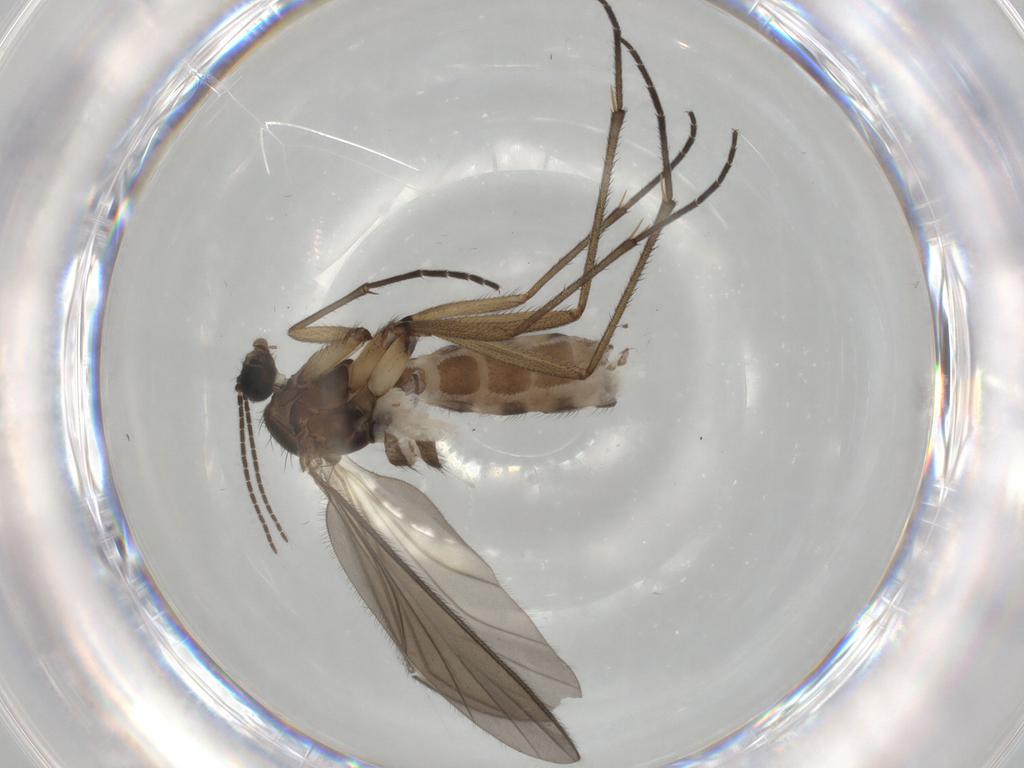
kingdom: Animalia
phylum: Arthropoda
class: Insecta
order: Diptera
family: Sciaridae
